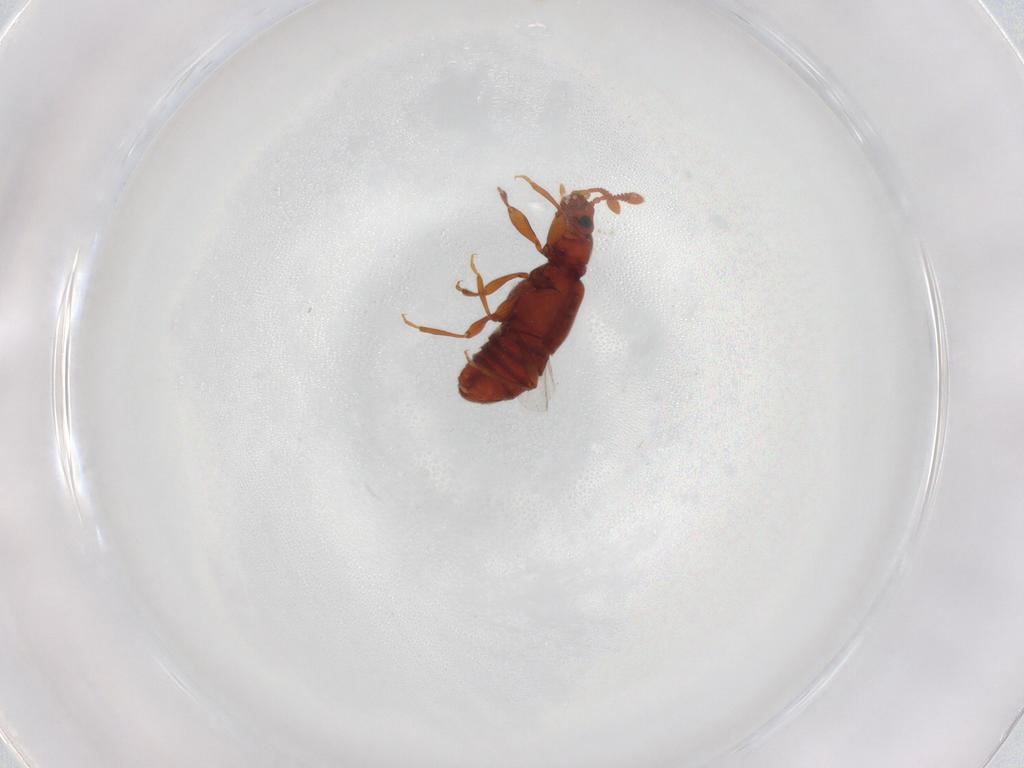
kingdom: Animalia
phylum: Arthropoda
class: Insecta
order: Coleoptera
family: Staphylinidae
